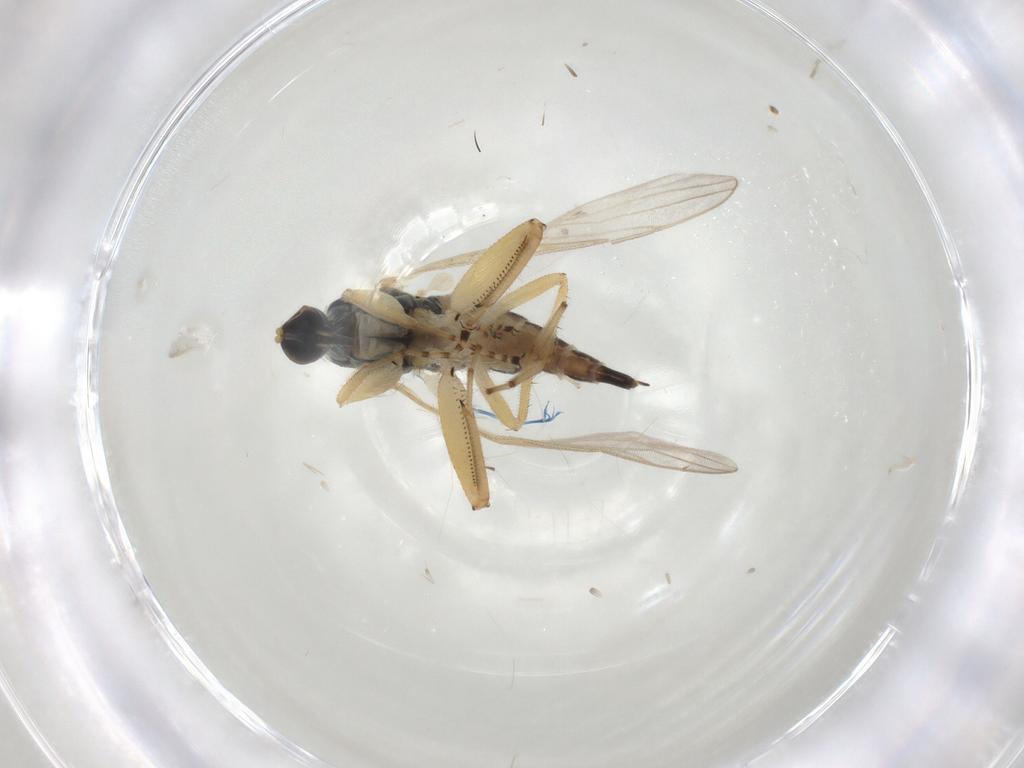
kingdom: Animalia
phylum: Arthropoda
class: Insecta
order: Diptera
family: Hybotidae
